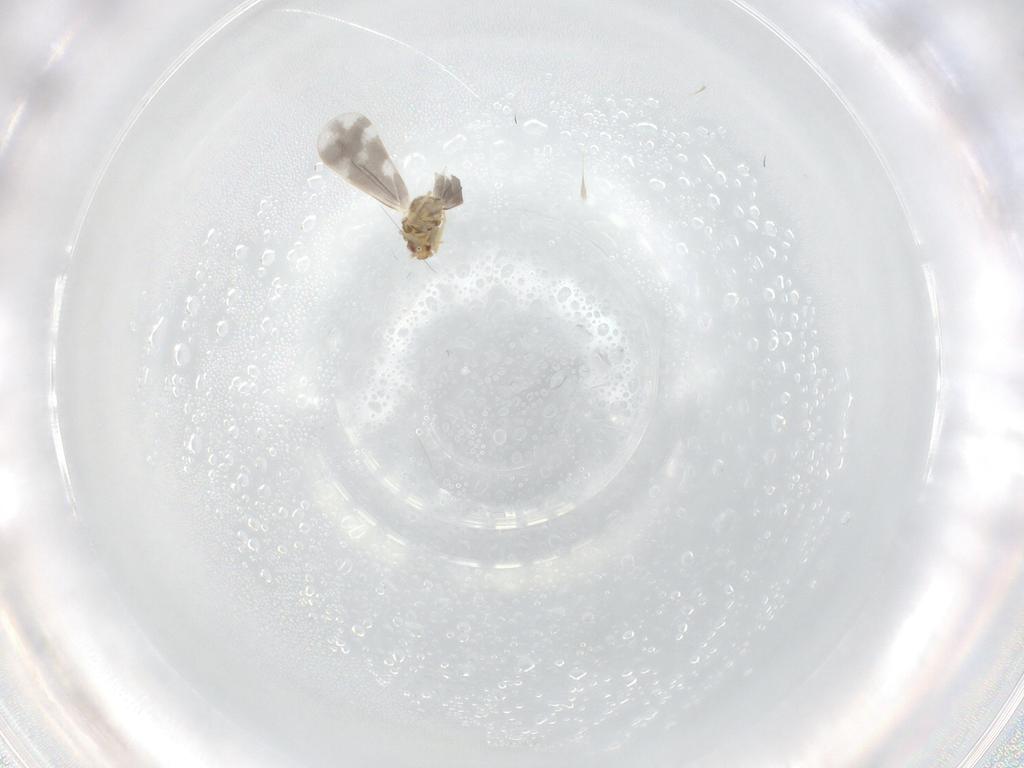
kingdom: Animalia
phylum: Arthropoda
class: Insecta
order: Hemiptera
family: Aleyrodidae
